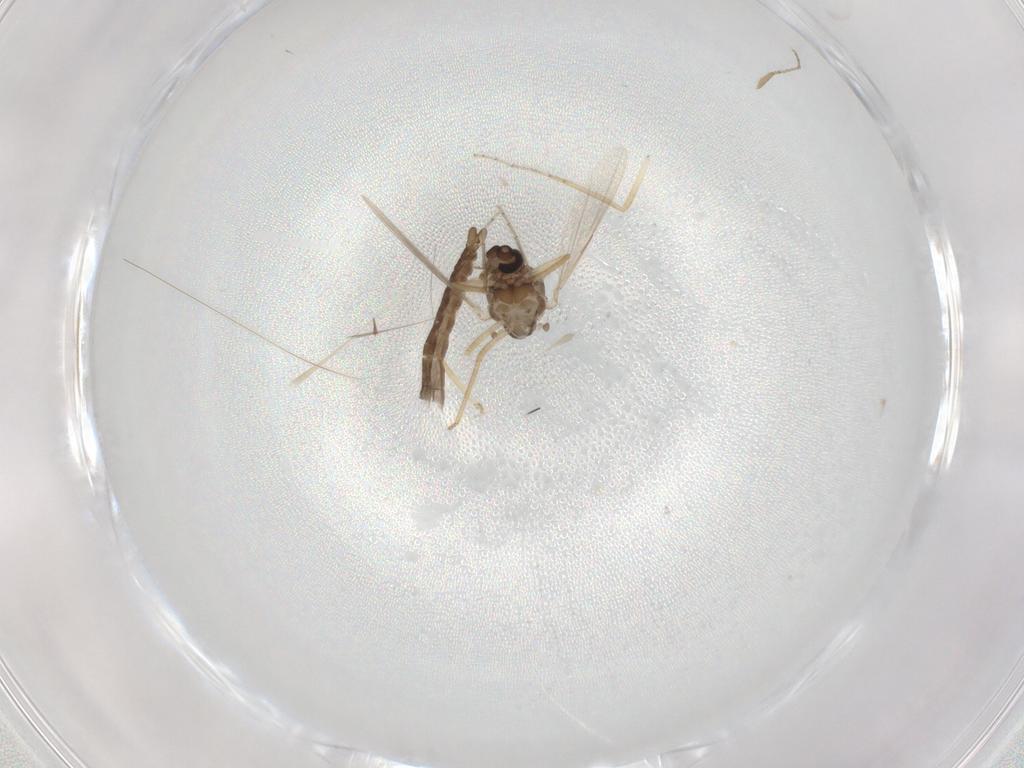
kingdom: Animalia
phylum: Arthropoda
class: Insecta
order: Diptera
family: Ceratopogonidae
